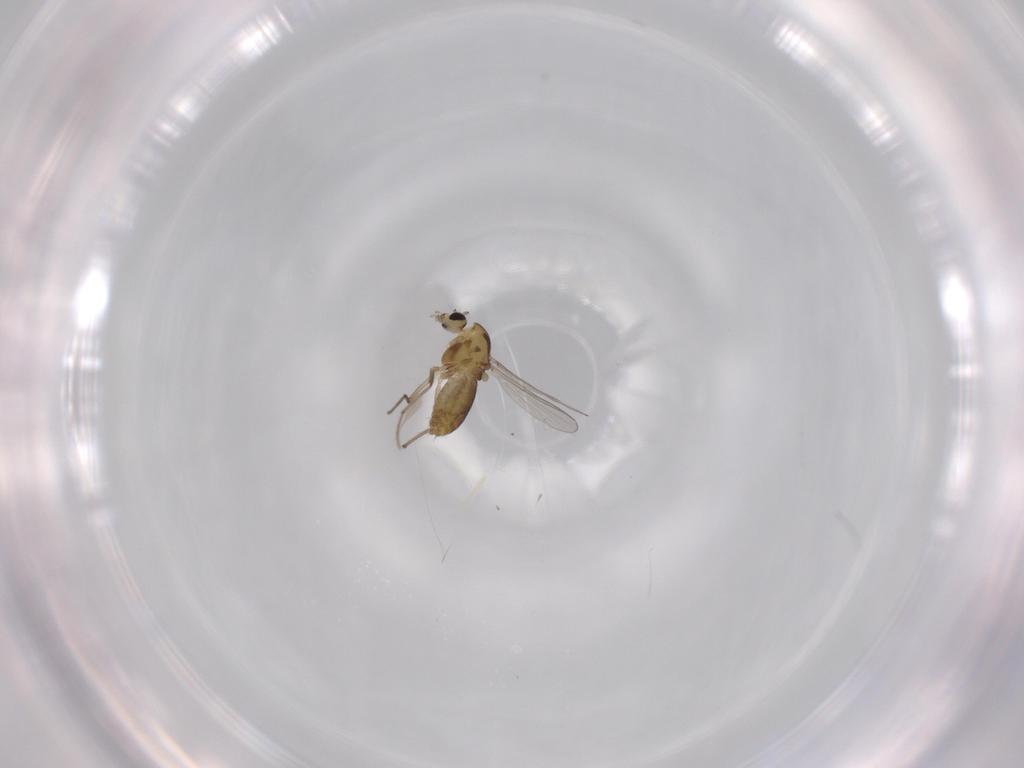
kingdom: Animalia
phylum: Arthropoda
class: Insecta
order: Diptera
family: Chironomidae
